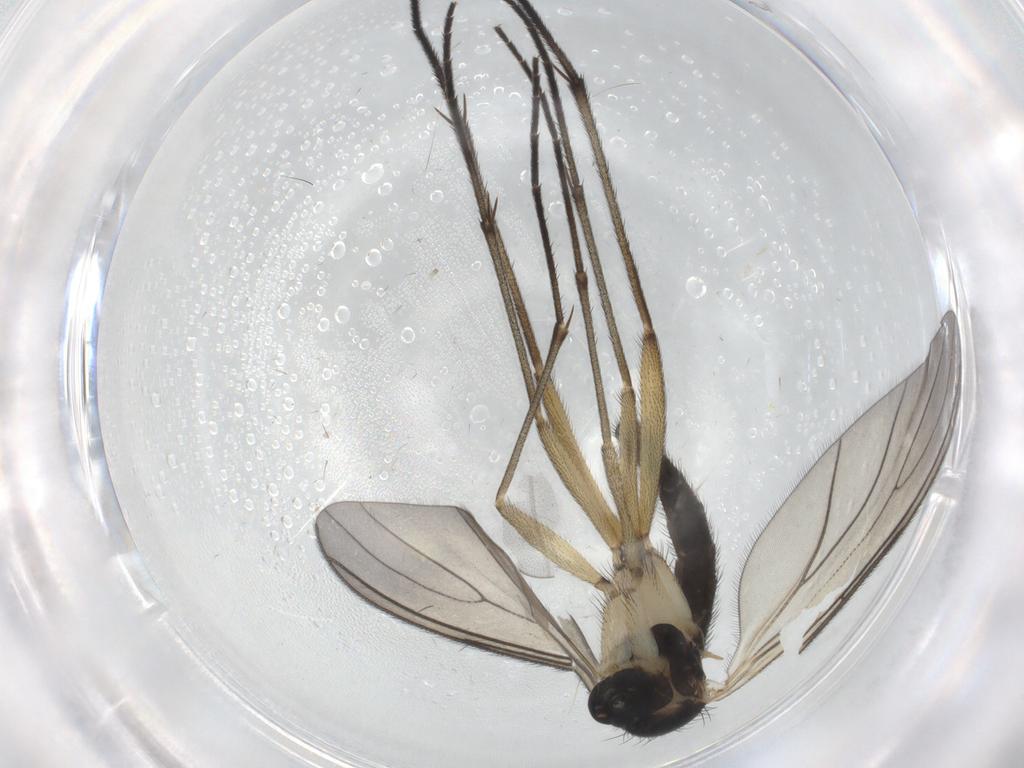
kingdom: Animalia
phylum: Arthropoda
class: Insecta
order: Diptera
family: Sciaridae
